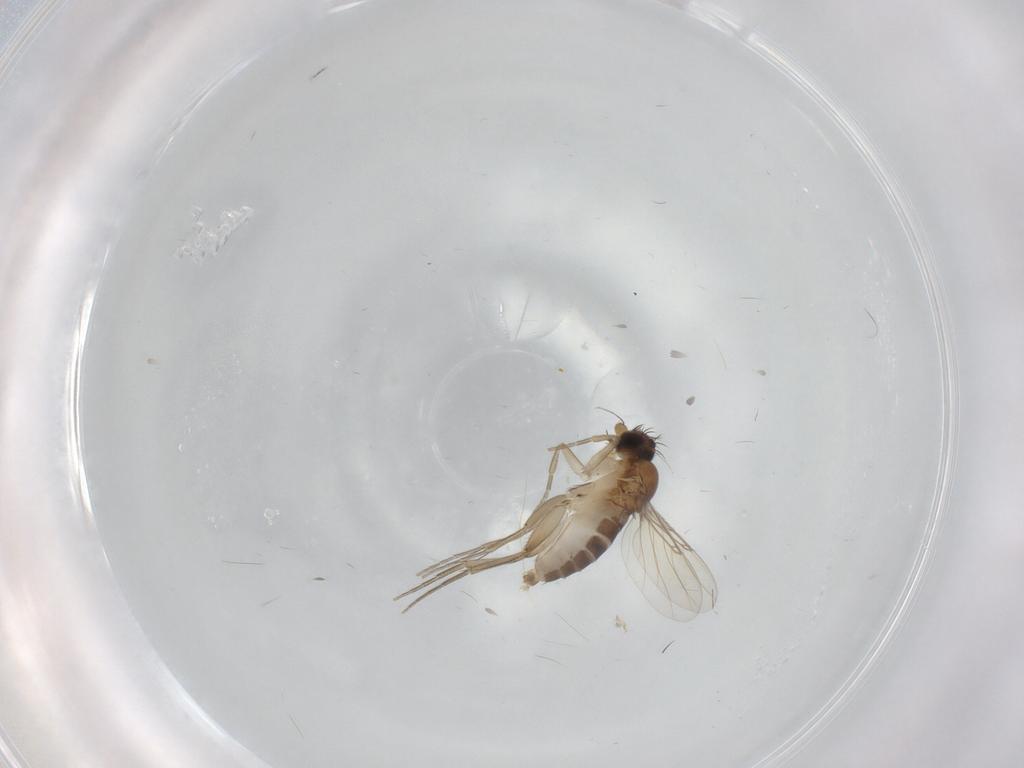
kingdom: Animalia
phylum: Arthropoda
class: Insecta
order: Diptera
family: Phoridae
